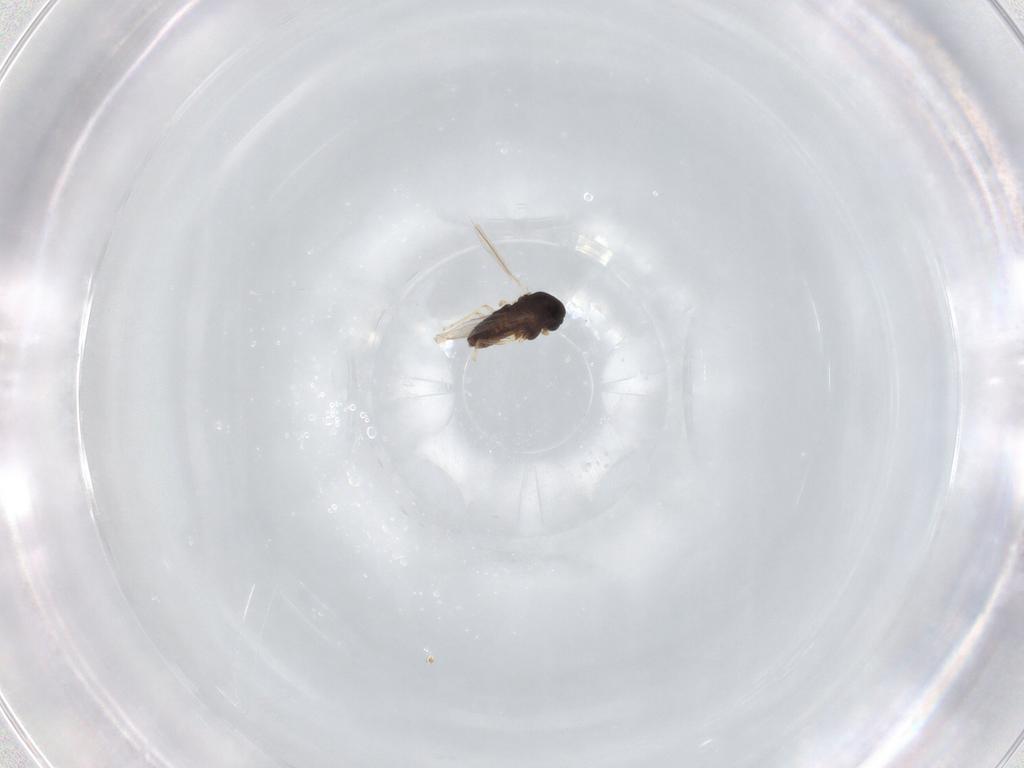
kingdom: Animalia
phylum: Arthropoda
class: Insecta
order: Diptera
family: Chironomidae
